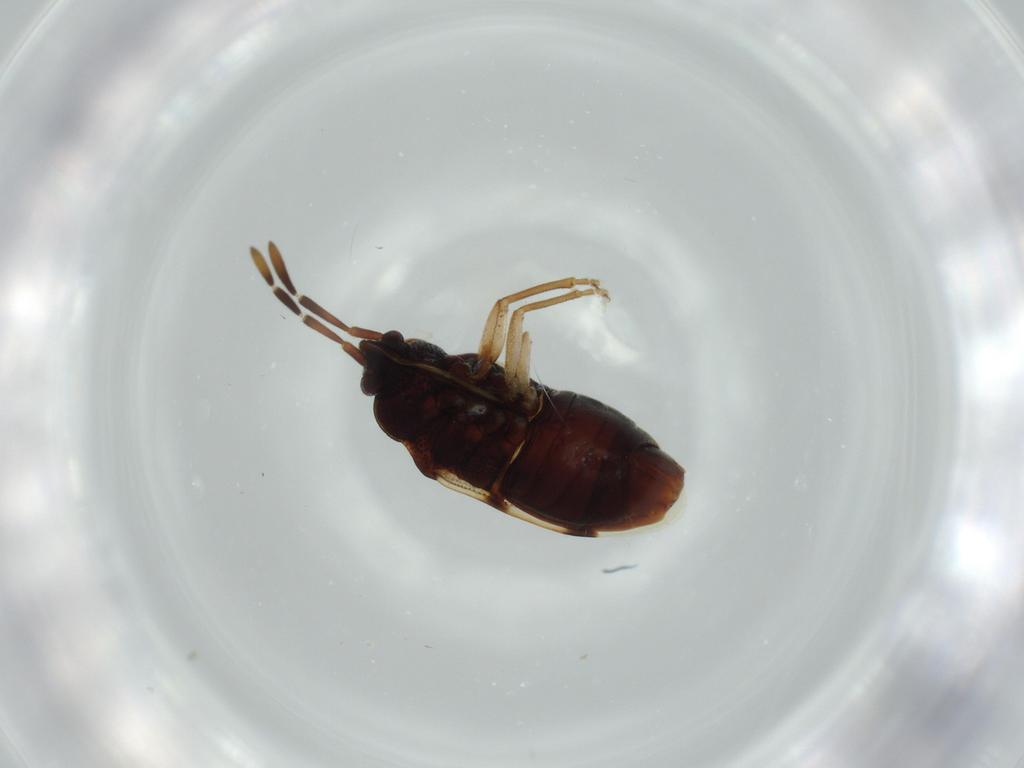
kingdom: Animalia
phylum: Arthropoda
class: Insecta
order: Hemiptera
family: Rhyparochromidae
